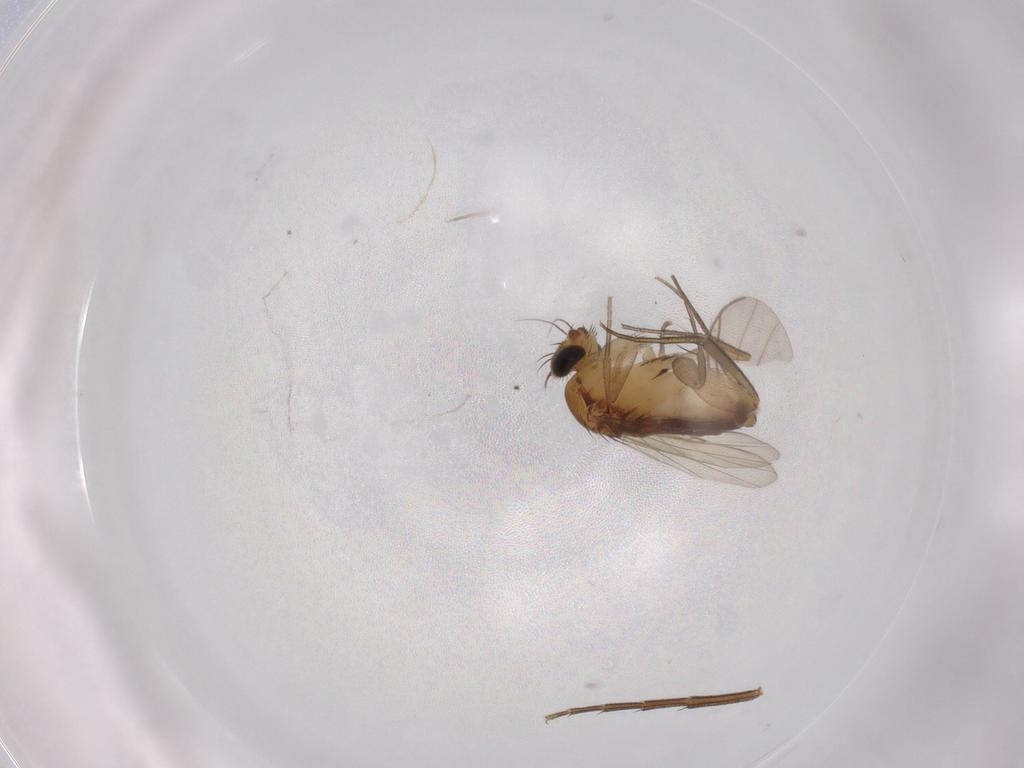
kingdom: Animalia
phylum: Arthropoda
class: Insecta
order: Diptera
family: Phoridae
